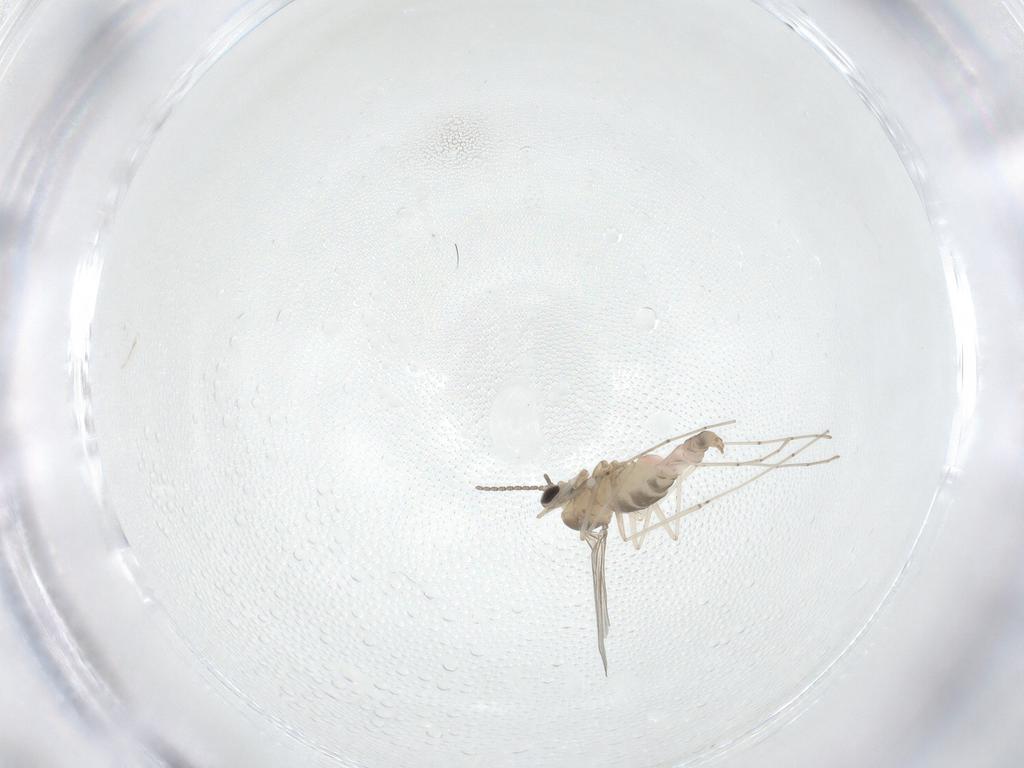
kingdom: Animalia
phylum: Arthropoda
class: Insecta
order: Diptera
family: Cecidomyiidae
